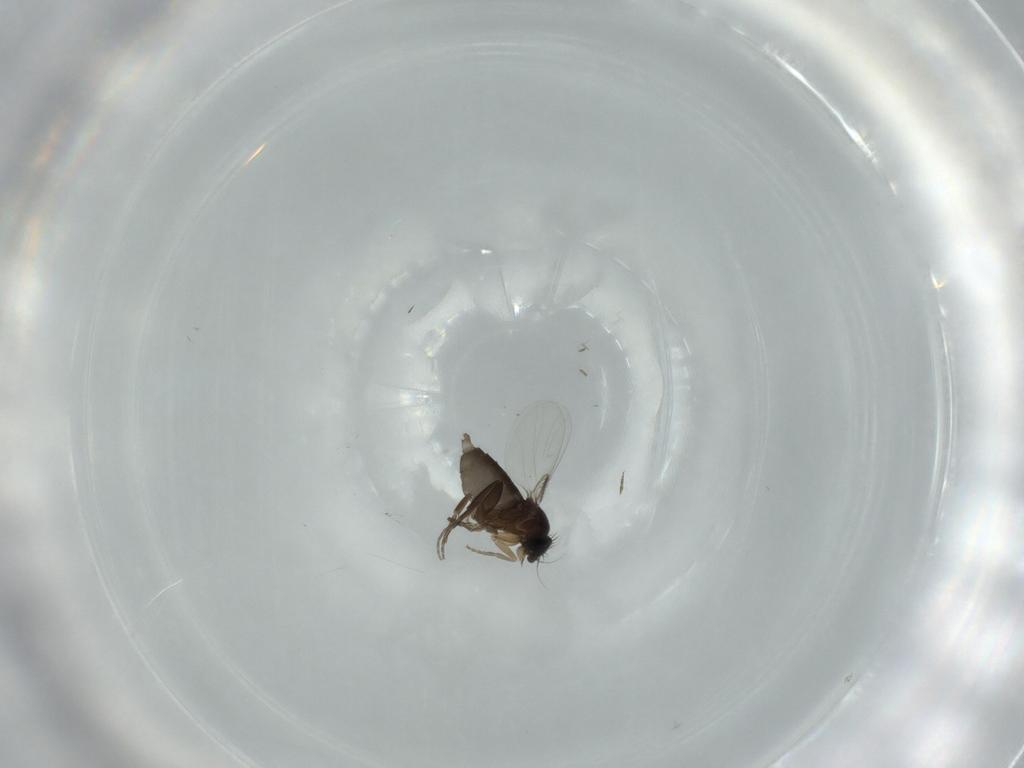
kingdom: Animalia
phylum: Arthropoda
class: Insecta
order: Diptera
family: Phoridae
